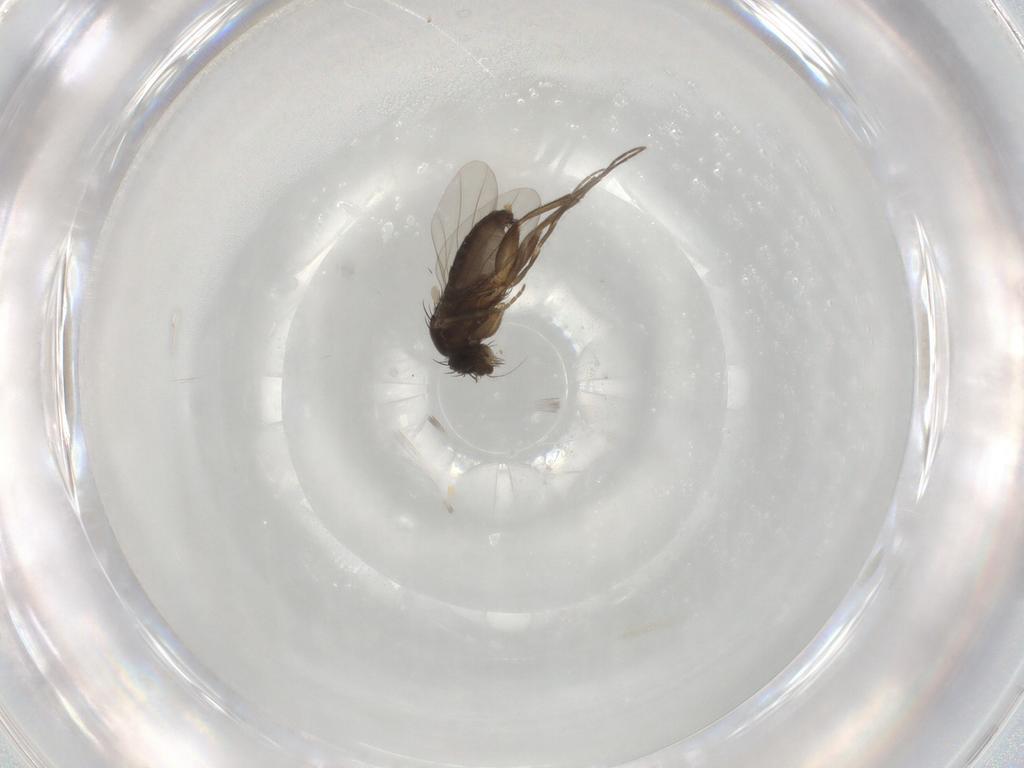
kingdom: Animalia
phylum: Arthropoda
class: Insecta
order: Diptera
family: Phoridae
